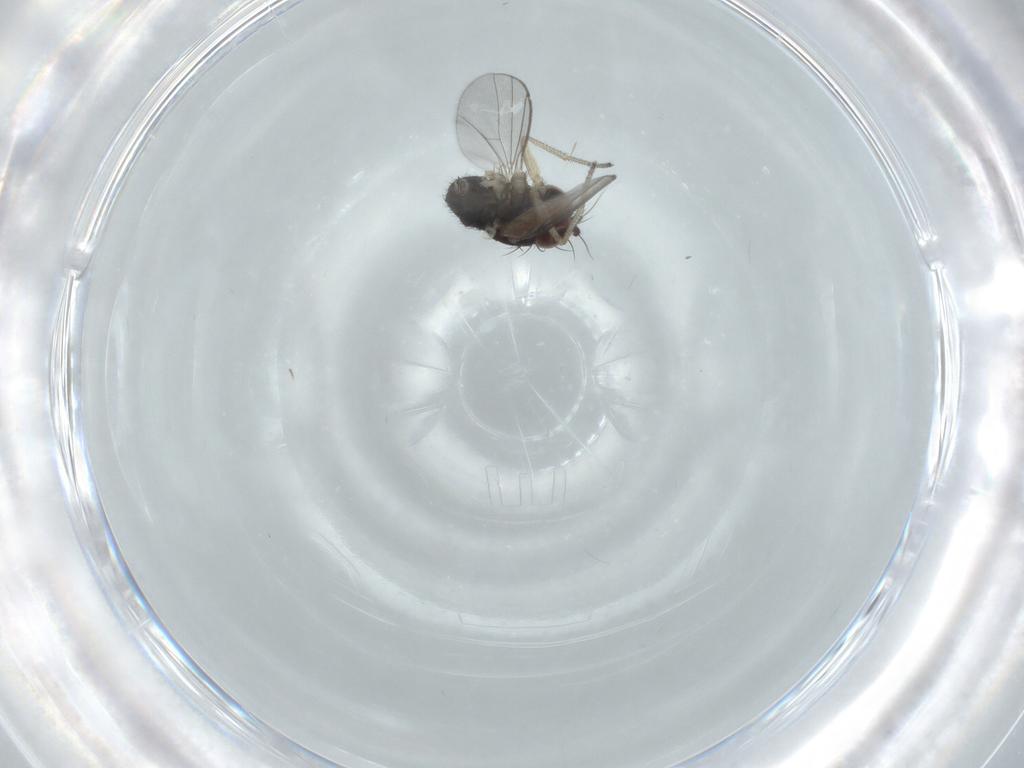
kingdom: Animalia
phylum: Arthropoda
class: Insecta
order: Diptera
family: Dolichopodidae
